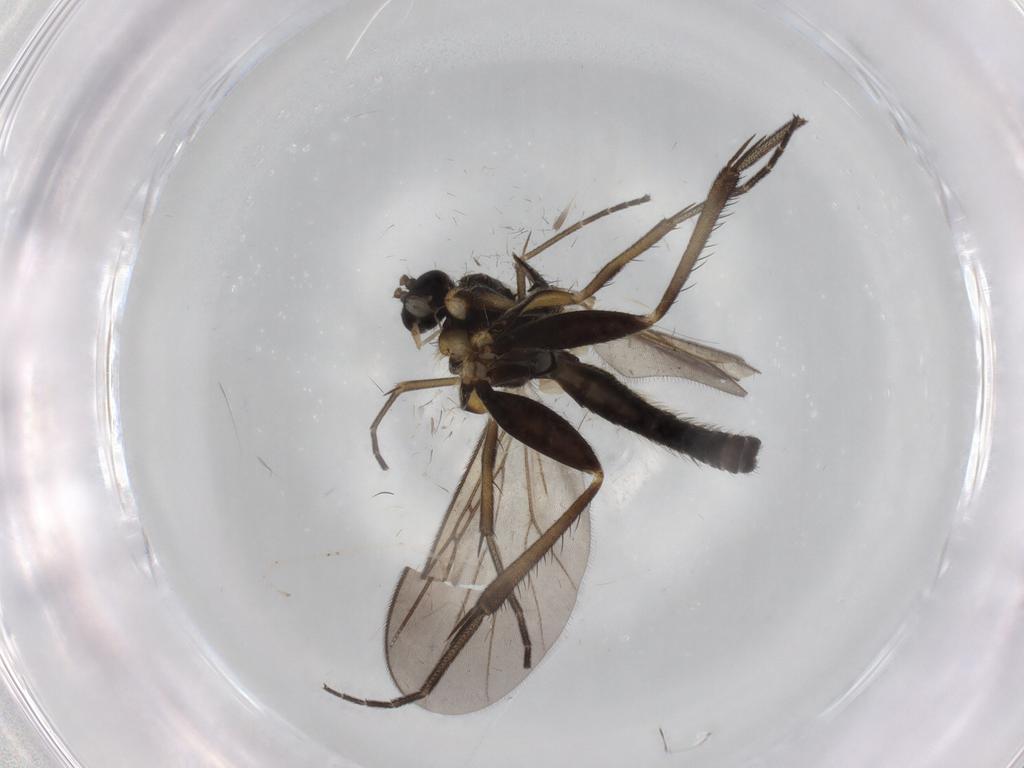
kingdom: Animalia
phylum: Arthropoda
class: Insecta
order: Diptera
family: Mycetophilidae
